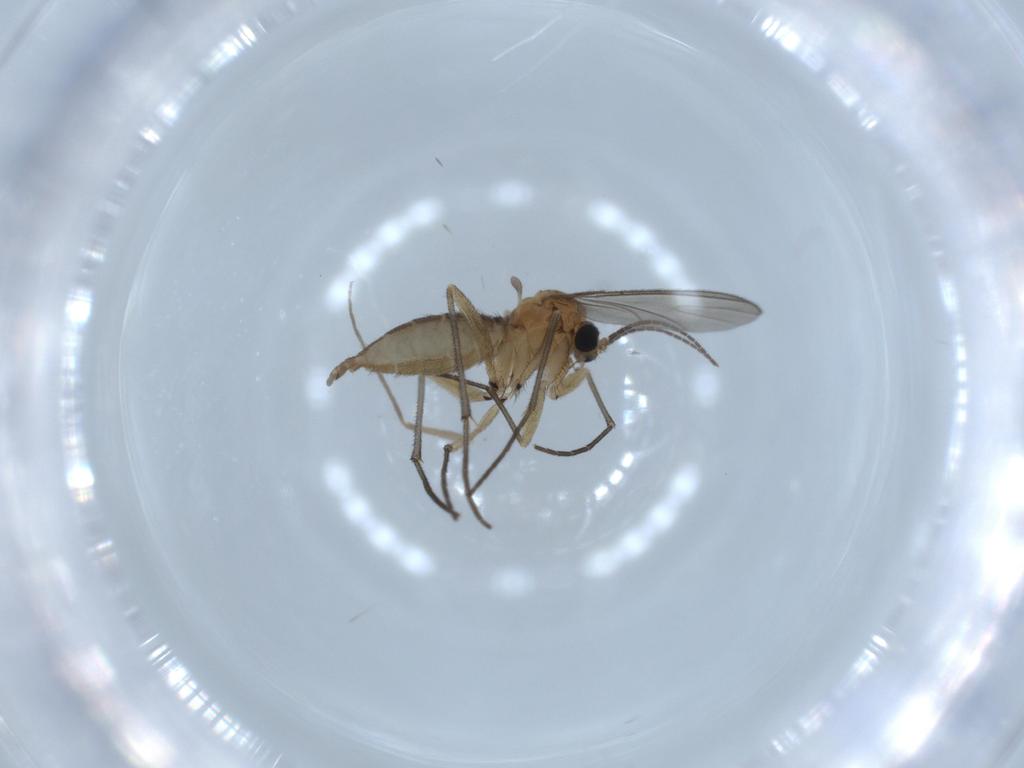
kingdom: Animalia
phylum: Arthropoda
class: Insecta
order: Diptera
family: Sciaridae
